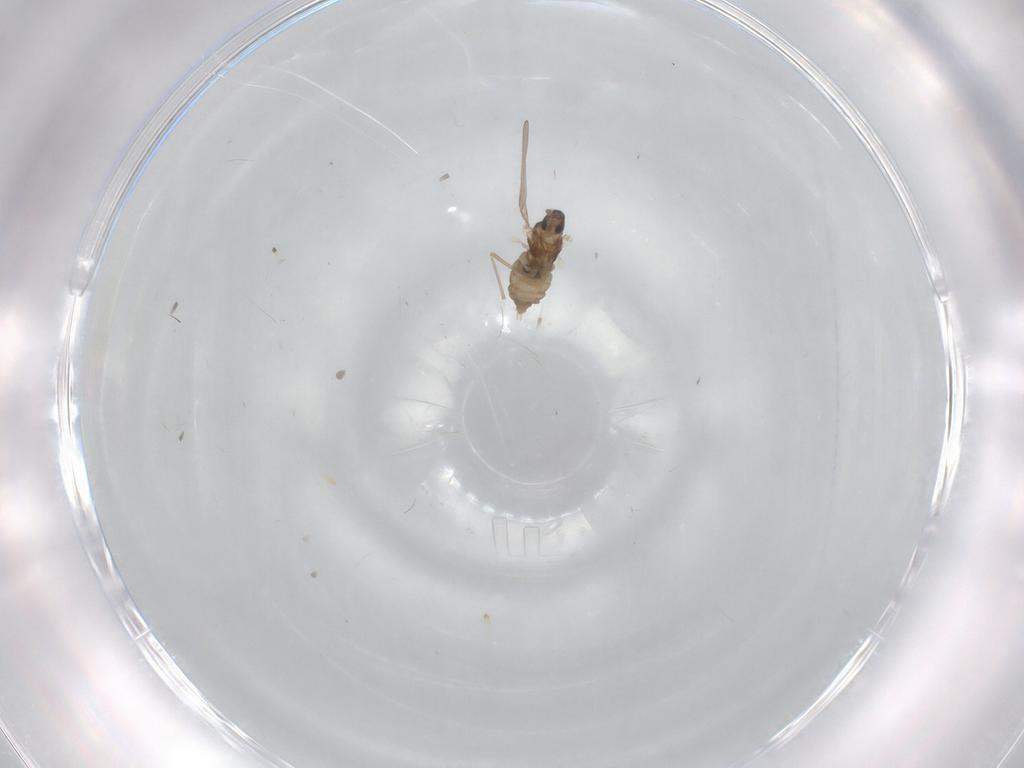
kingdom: Animalia
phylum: Arthropoda
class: Insecta
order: Diptera
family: Cecidomyiidae
